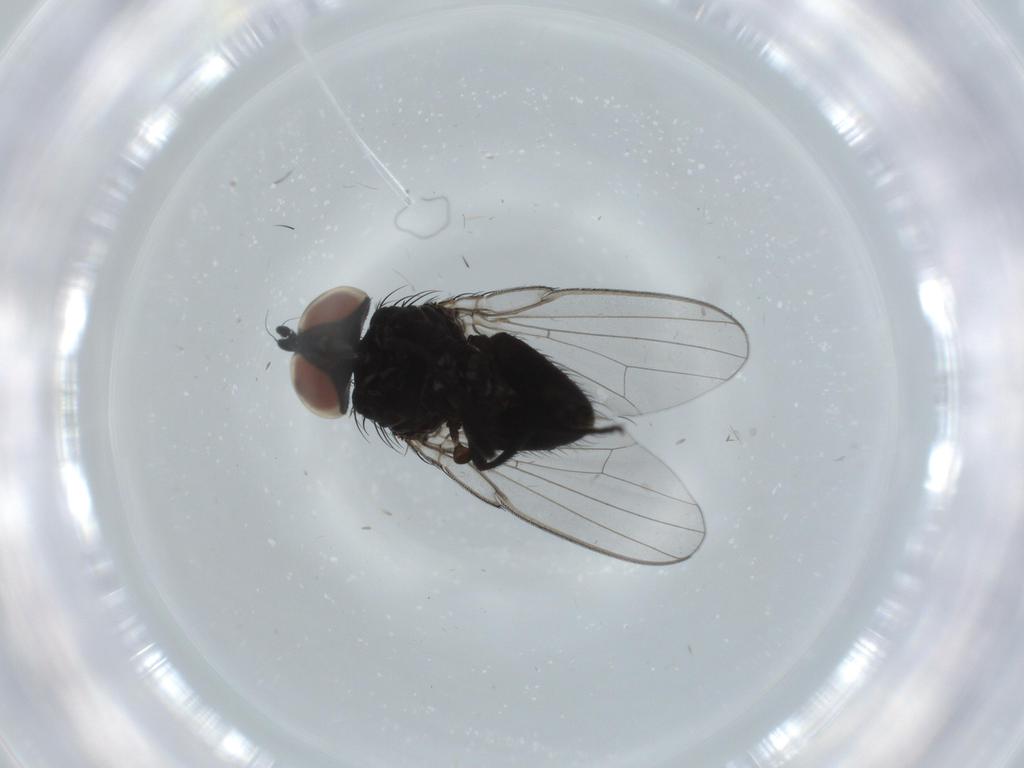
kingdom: Animalia
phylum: Arthropoda
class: Insecta
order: Diptera
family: Milichiidae
